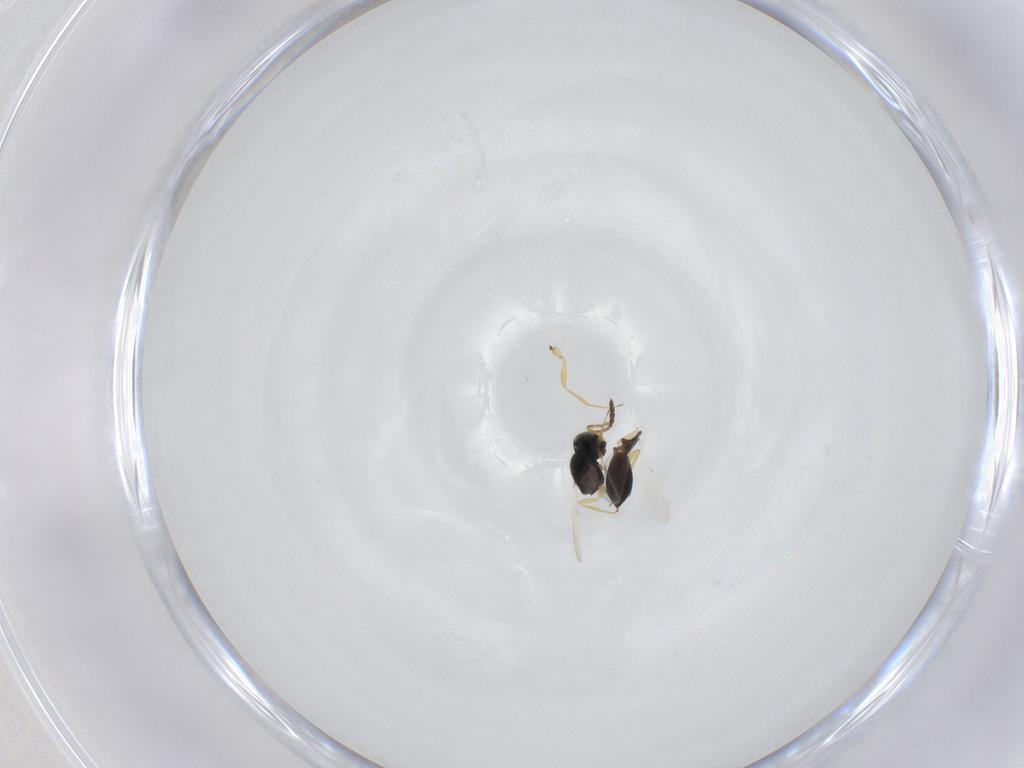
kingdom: Animalia
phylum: Arthropoda
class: Insecta
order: Hymenoptera
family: Scelionidae
